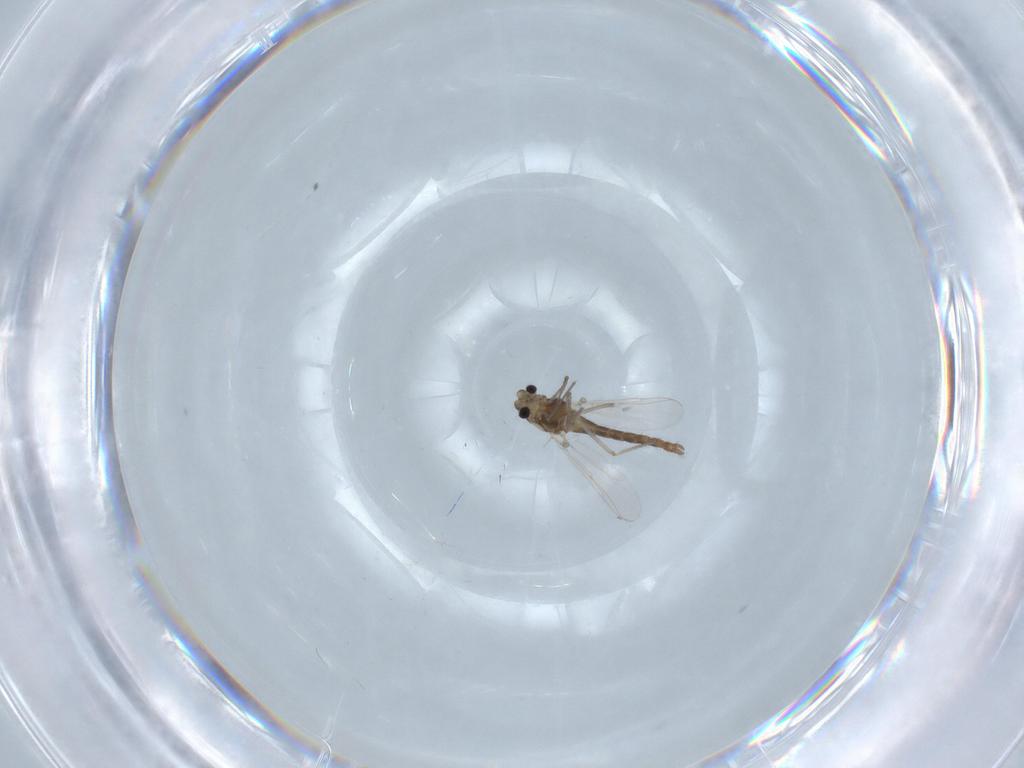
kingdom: Animalia
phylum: Arthropoda
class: Insecta
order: Diptera
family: Chironomidae
